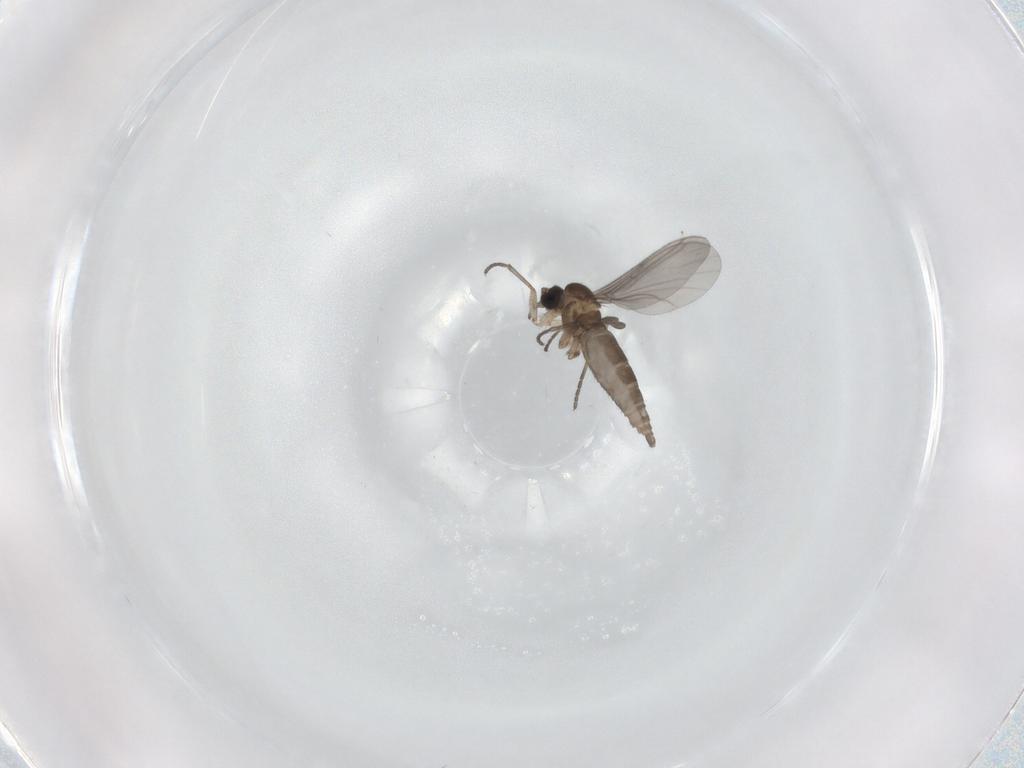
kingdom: Animalia
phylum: Arthropoda
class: Insecta
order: Diptera
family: Cecidomyiidae
